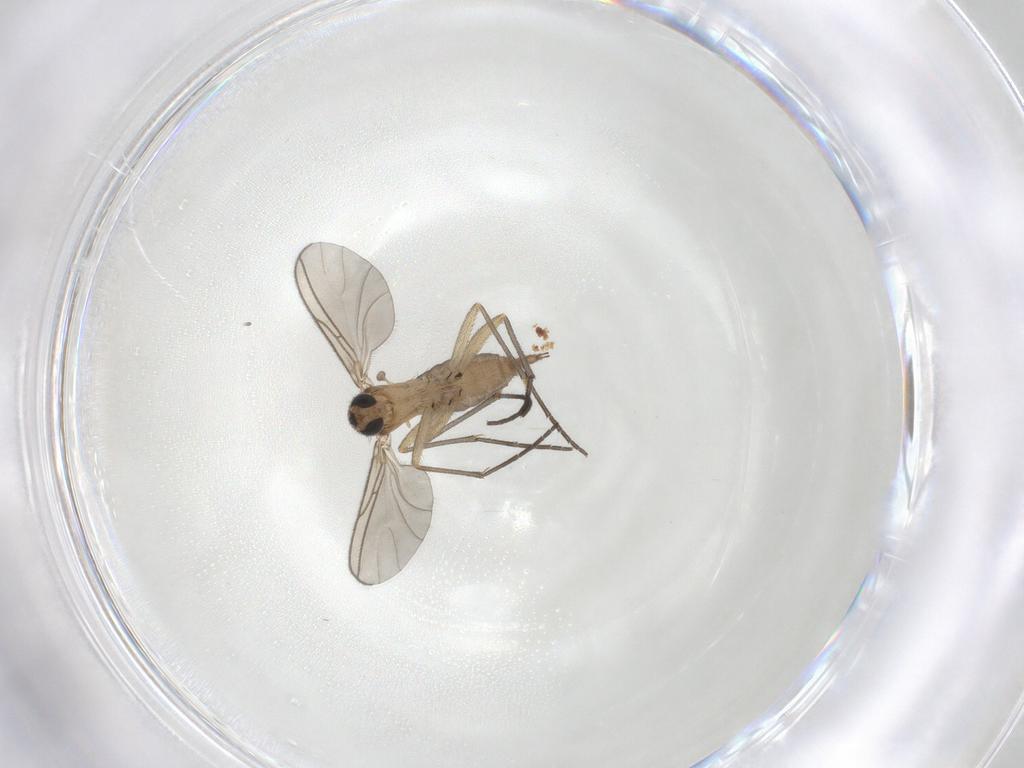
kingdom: Animalia
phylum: Arthropoda
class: Insecta
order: Diptera
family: Sciaridae
